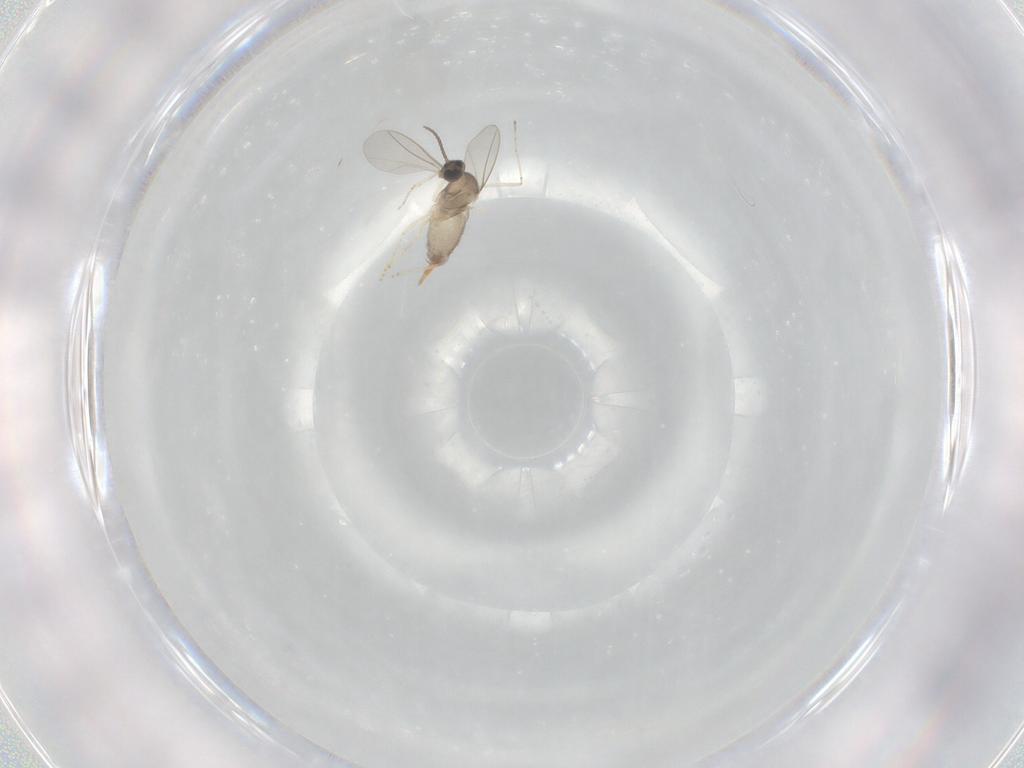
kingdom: Animalia
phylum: Arthropoda
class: Insecta
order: Diptera
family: Cecidomyiidae
